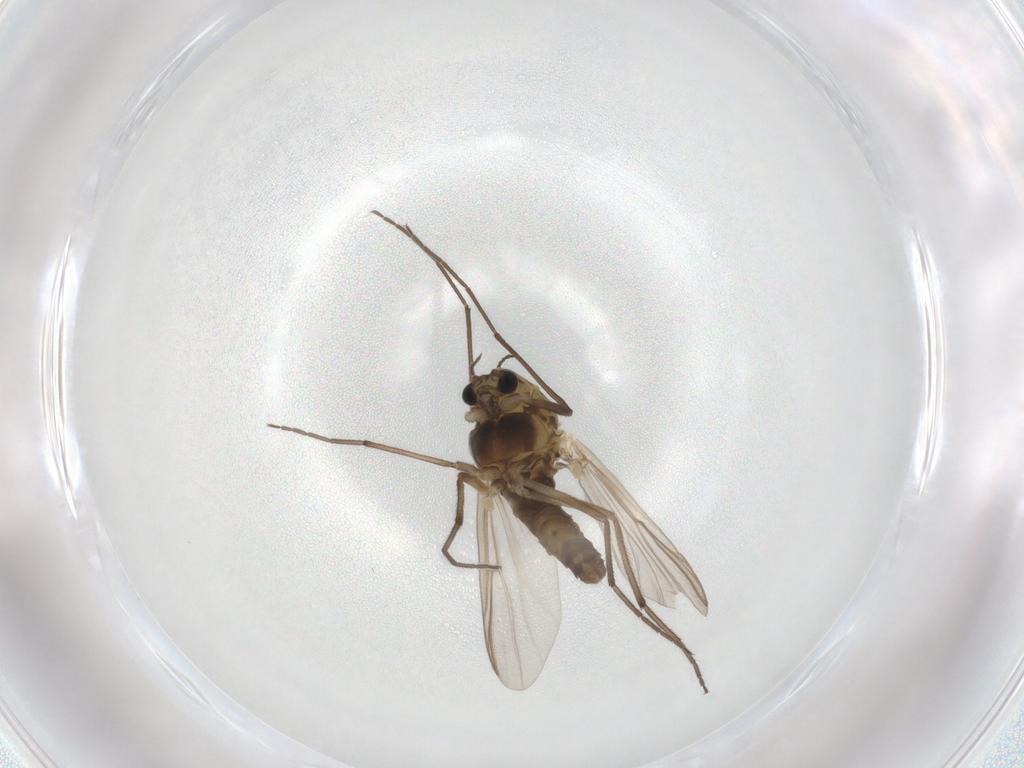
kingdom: Animalia
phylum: Arthropoda
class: Insecta
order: Diptera
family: Chironomidae
